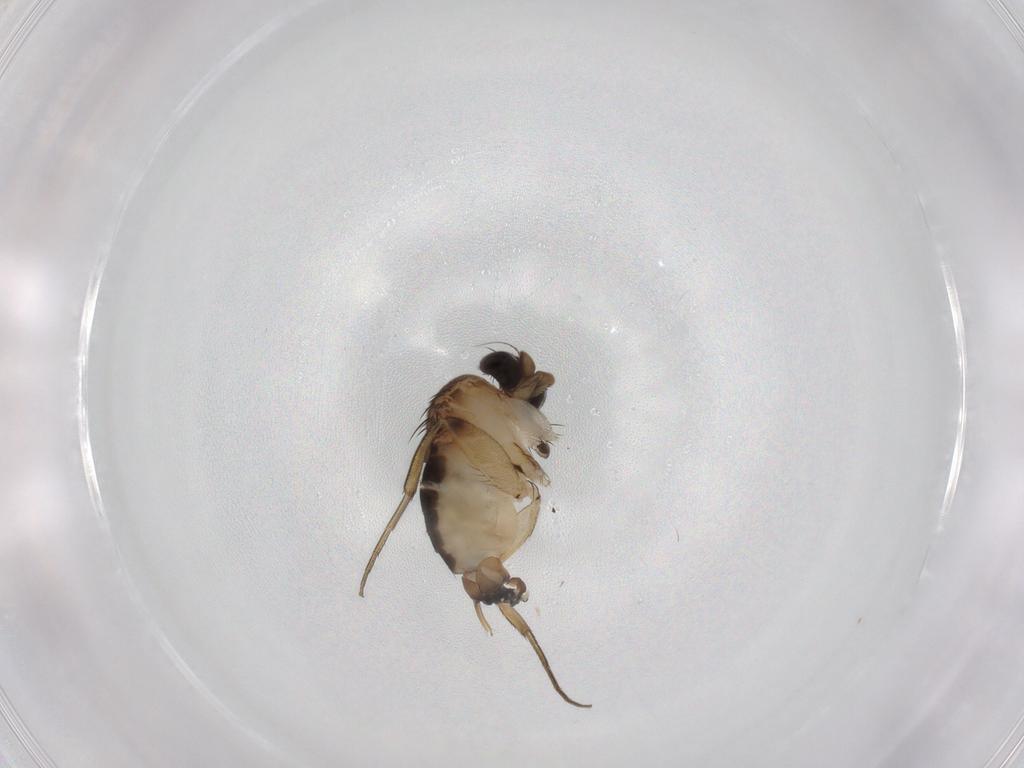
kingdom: Animalia
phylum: Arthropoda
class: Insecta
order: Diptera
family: Phoridae
